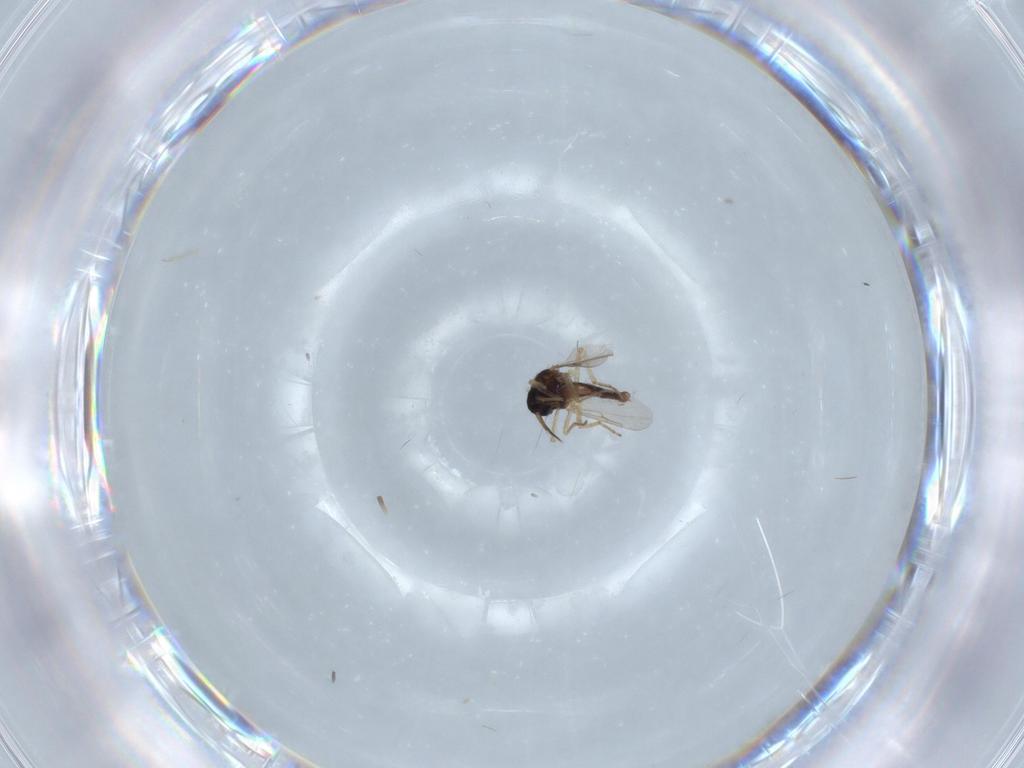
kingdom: Animalia
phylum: Arthropoda
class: Insecta
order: Diptera
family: Ceratopogonidae
